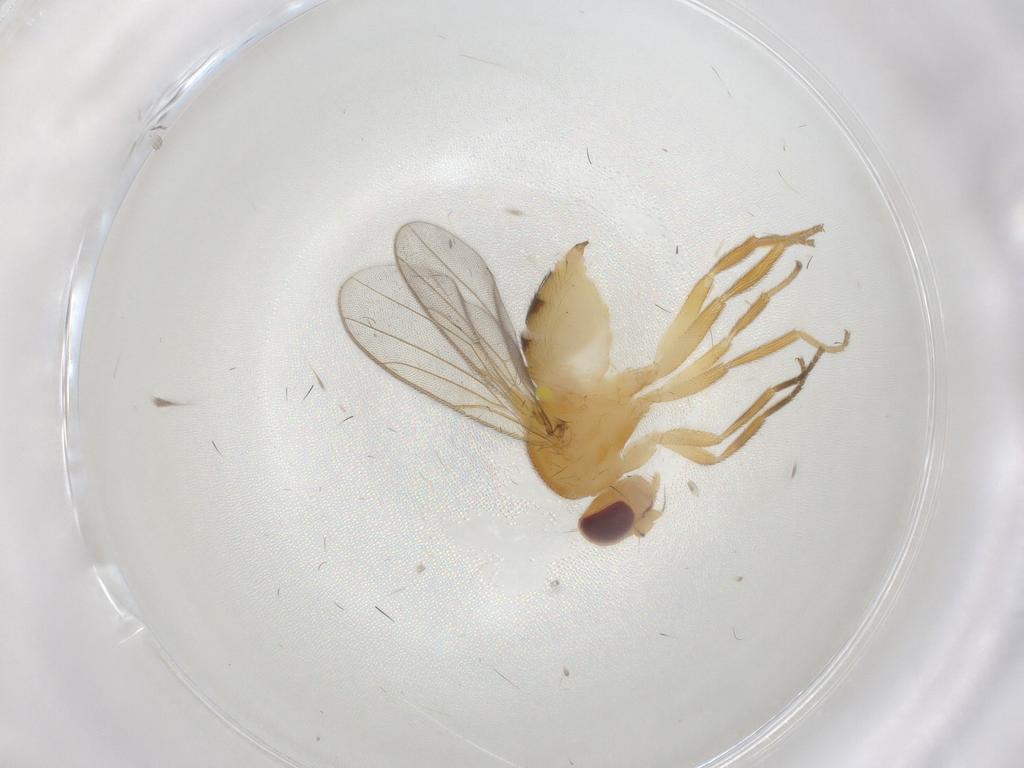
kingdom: Animalia
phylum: Arthropoda
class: Insecta
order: Diptera
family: Chloropidae
